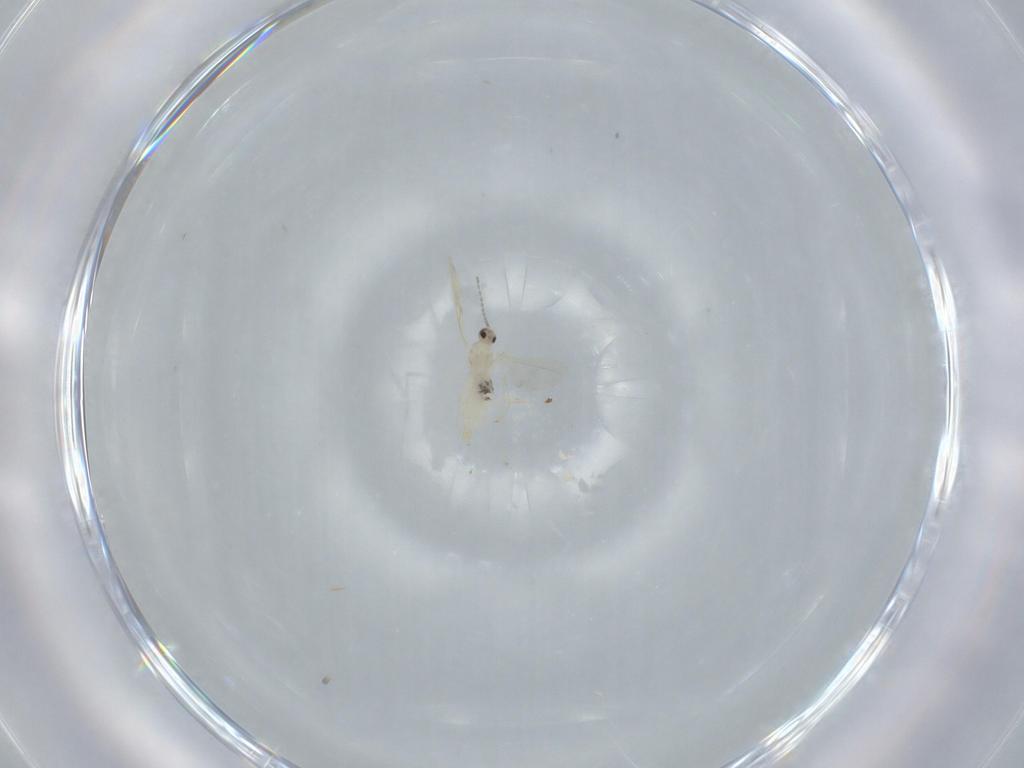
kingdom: Animalia
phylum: Arthropoda
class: Insecta
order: Diptera
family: Cecidomyiidae
